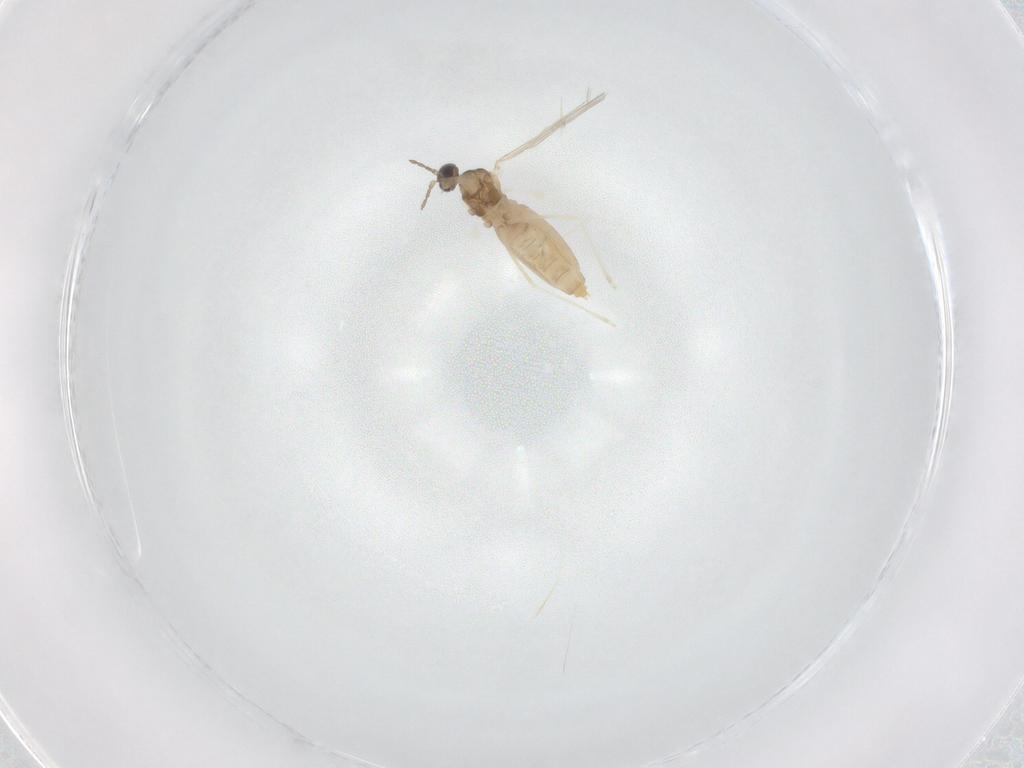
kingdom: Animalia
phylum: Arthropoda
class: Insecta
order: Diptera
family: Cecidomyiidae
